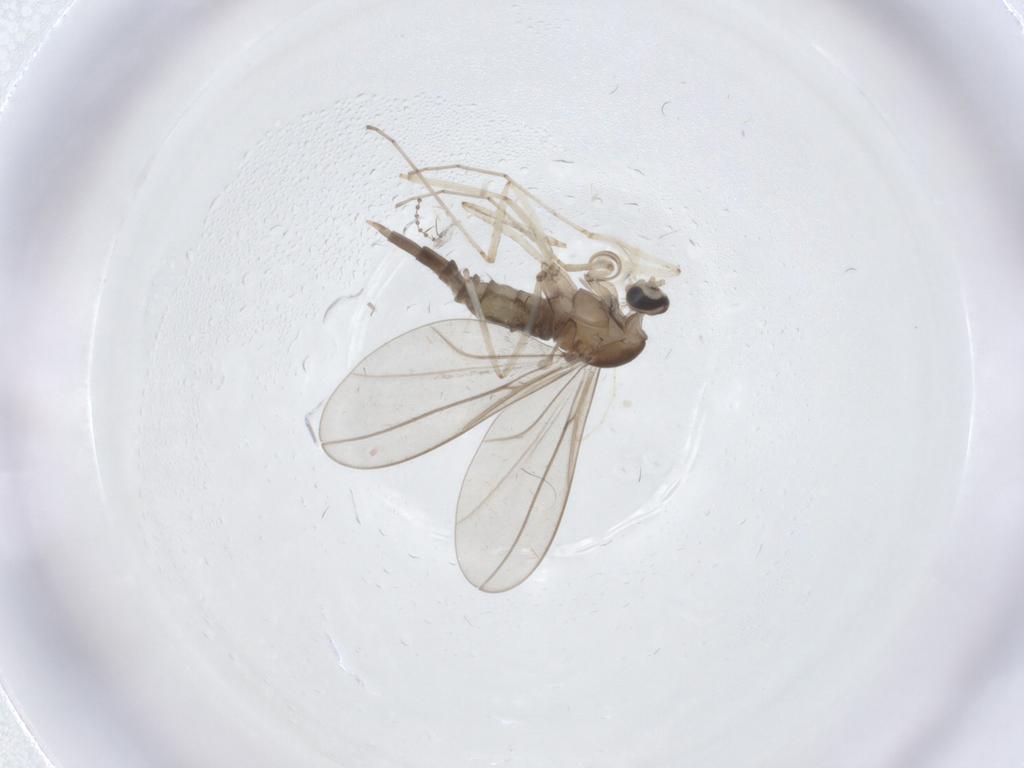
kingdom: Animalia
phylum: Arthropoda
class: Insecta
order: Diptera
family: Cecidomyiidae
